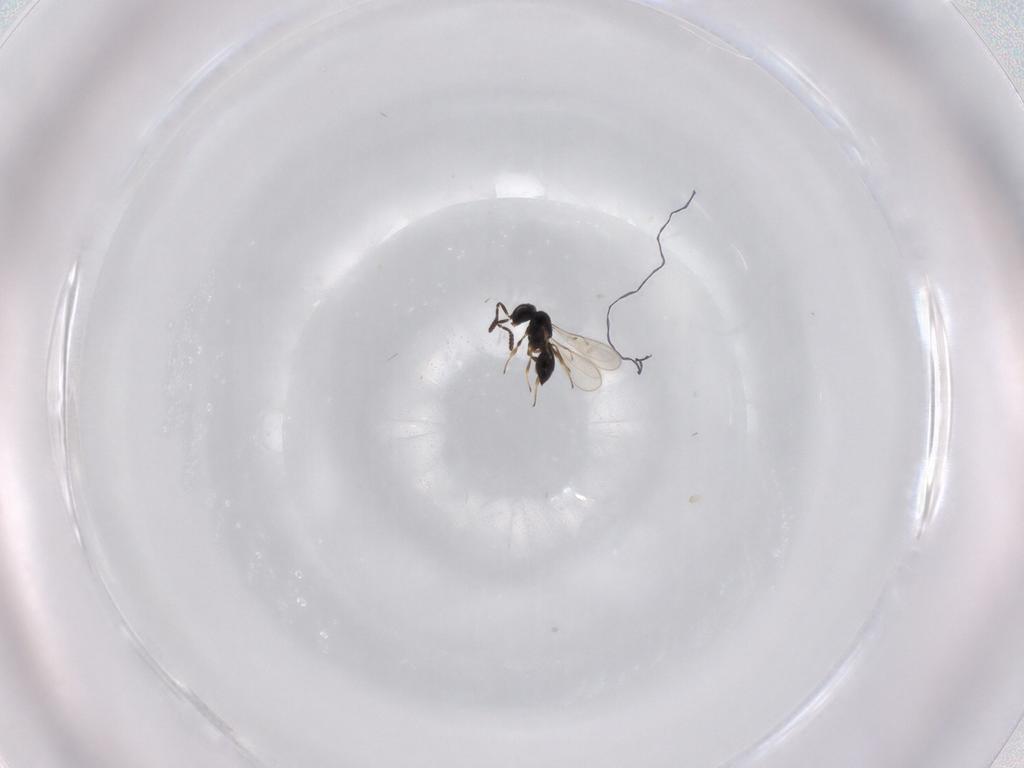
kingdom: Animalia
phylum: Arthropoda
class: Insecta
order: Hymenoptera
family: Scelionidae
